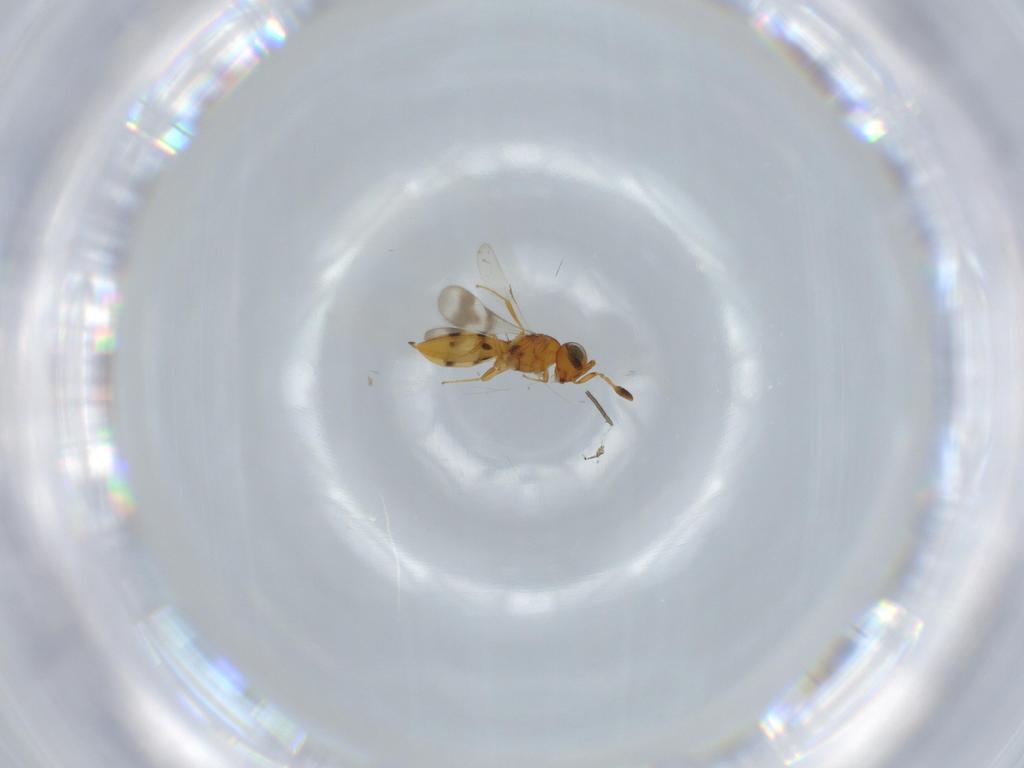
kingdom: Animalia
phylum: Arthropoda
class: Insecta
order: Hymenoptera
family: Scelionidae
